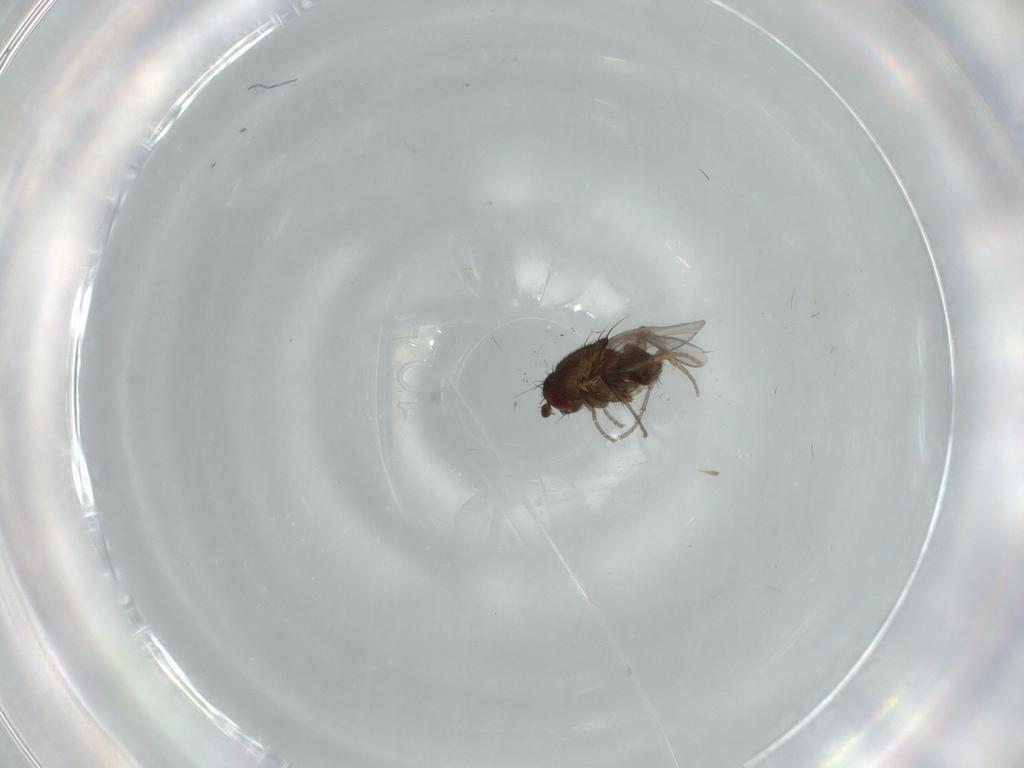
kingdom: Animalia
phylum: Arthropoda
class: Insecta
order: Diptera
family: Sphaeroceridae
